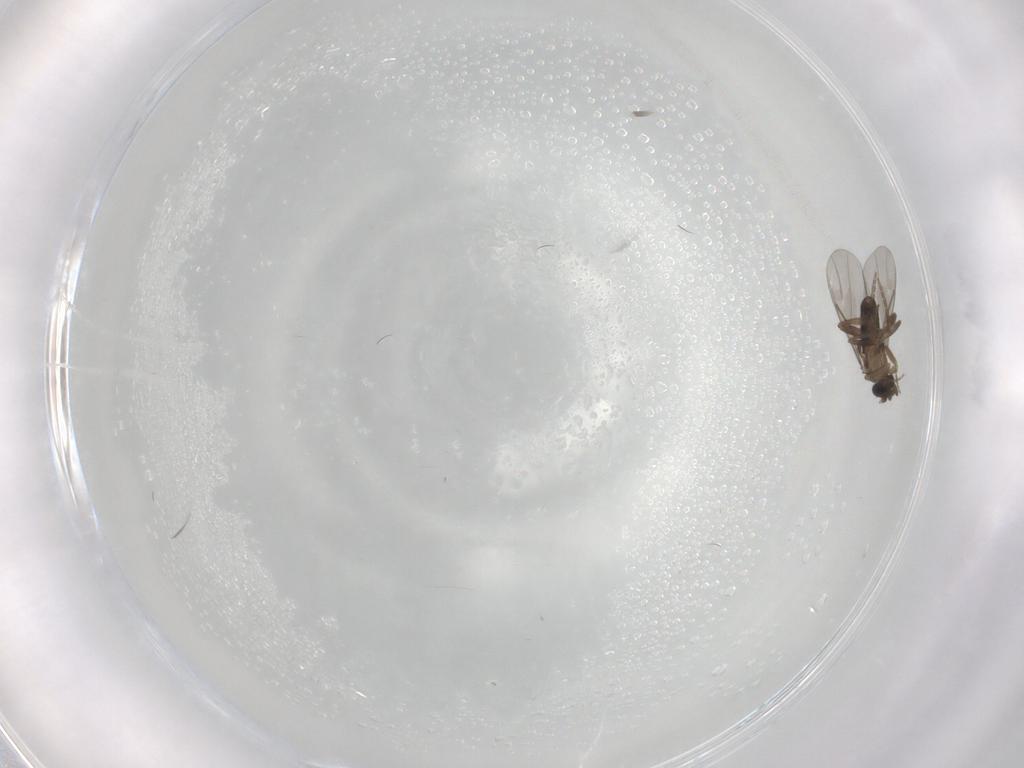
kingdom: Animalia
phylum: Arthropoda
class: Insecta
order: Diptera
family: Phoridae
